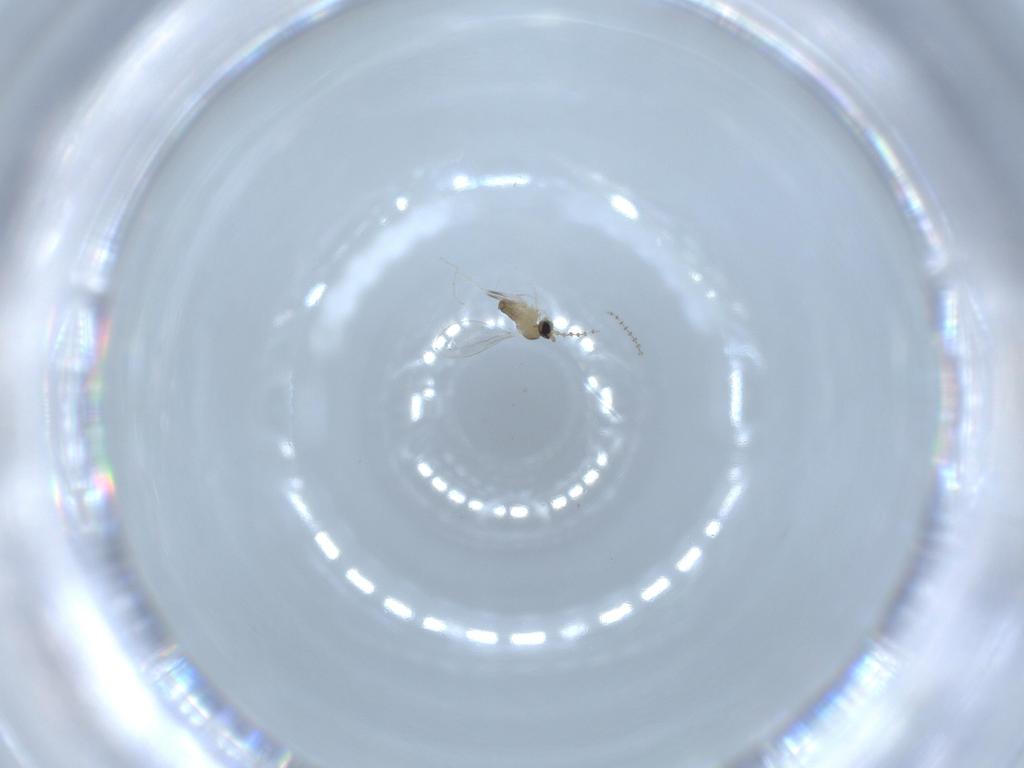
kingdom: Animalia
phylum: Arthropoda
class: Insecta
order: Diptera
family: Cecidomyiidae
